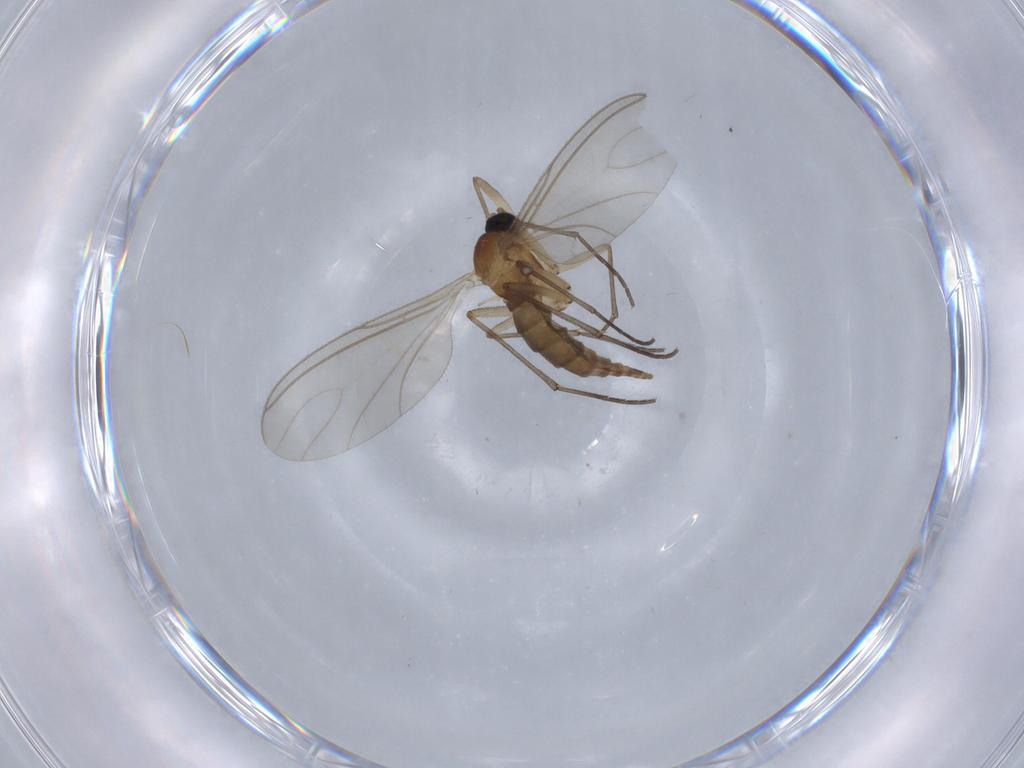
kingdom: Animalia
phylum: Arthropoda
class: Insecta
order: Diptera
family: Sciaridae
